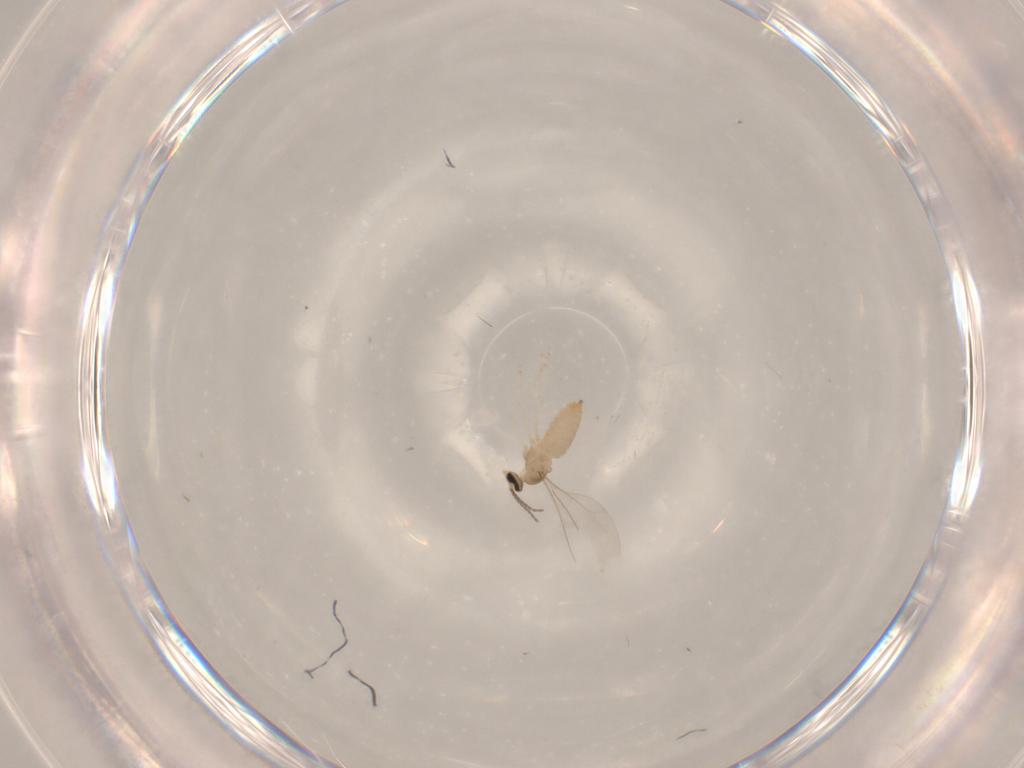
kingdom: Animalia
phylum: Arthropoda
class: Insecta
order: Diptera
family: Cecidomyiidae
